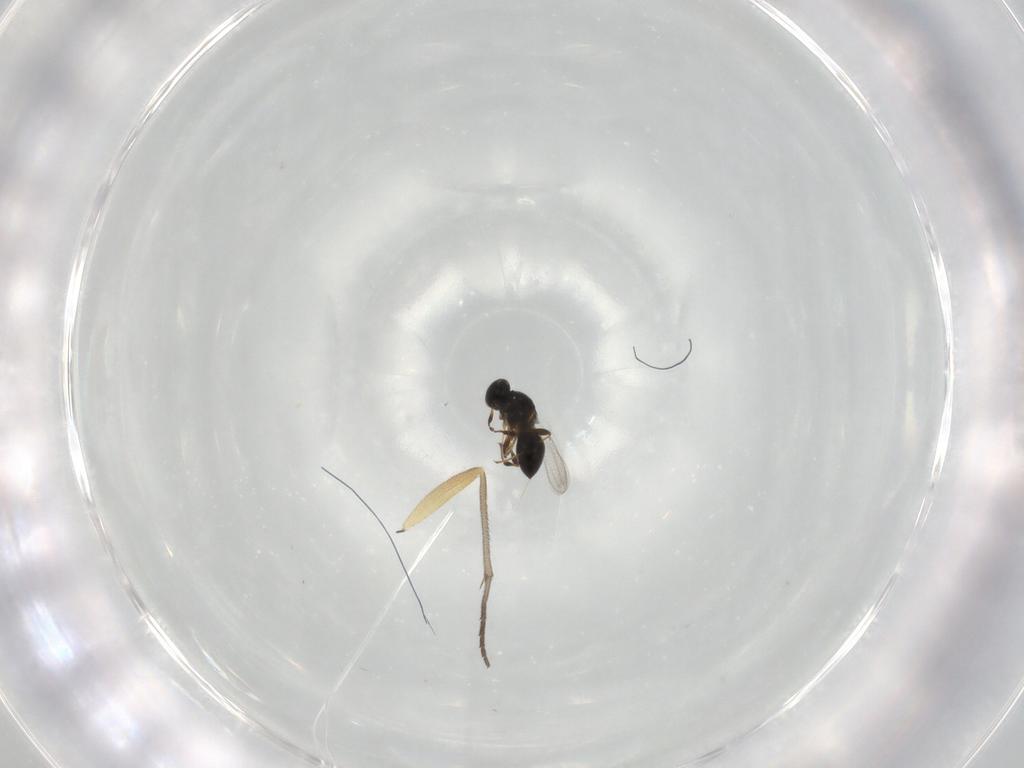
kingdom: Animalia
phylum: Arthropoda
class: Insecta
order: Hymenoptera
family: Platygastridae
